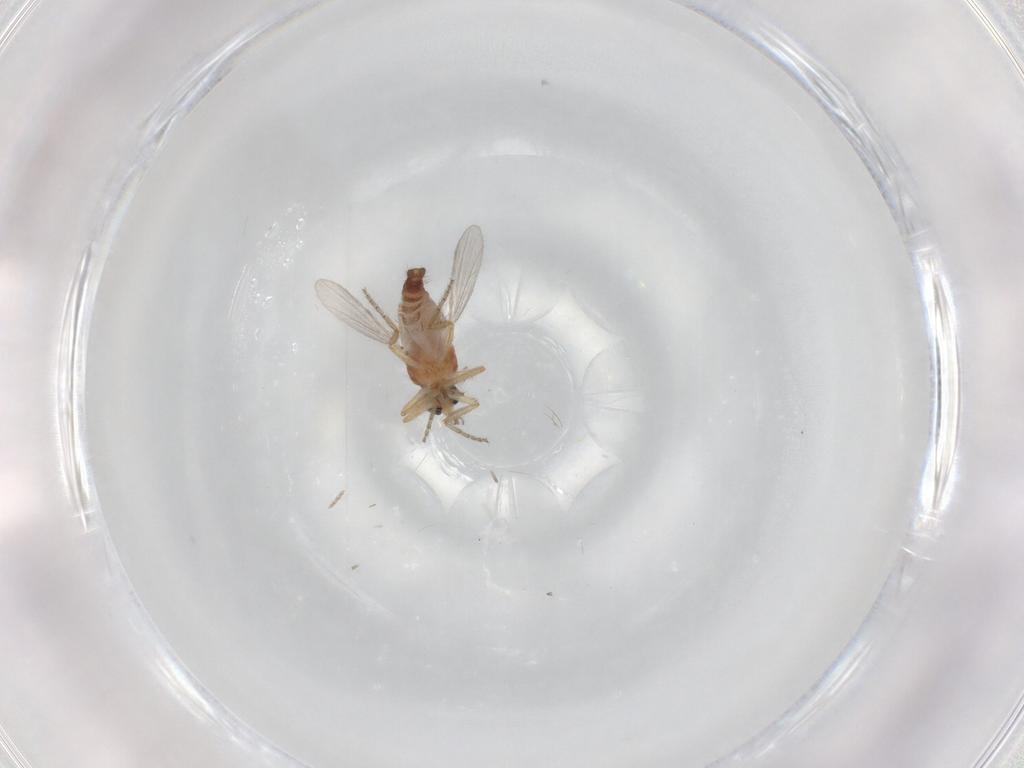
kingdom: Animalia
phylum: Arthropoda
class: Insecta
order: Diptera
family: Ceratopogonidae
